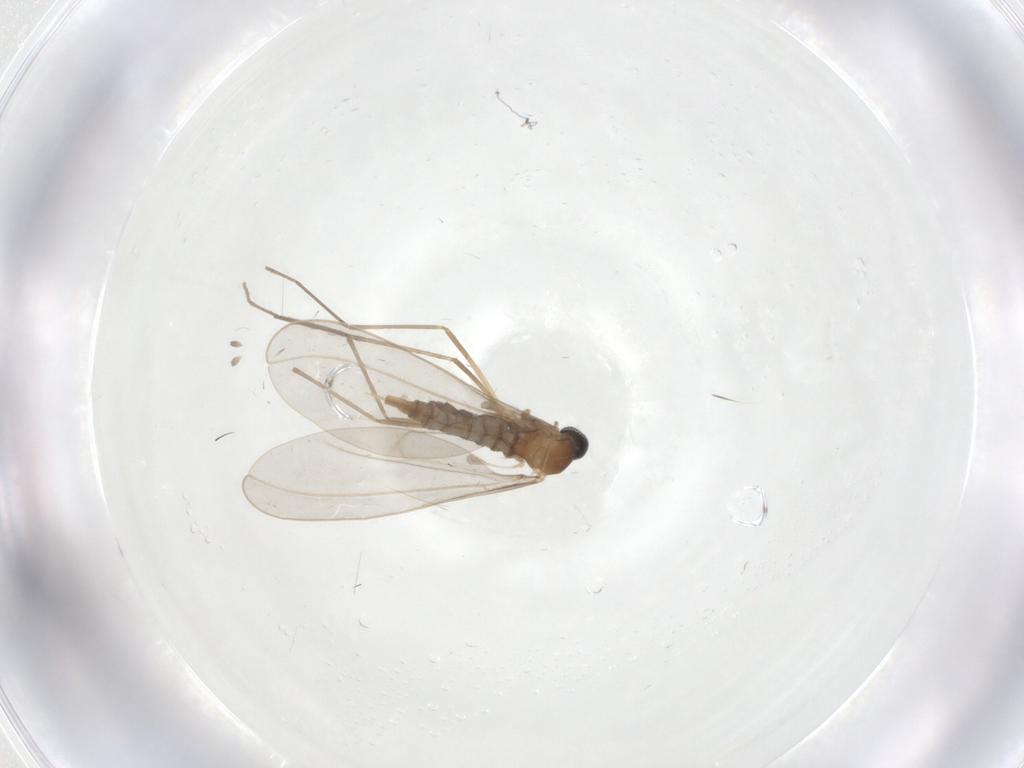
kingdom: Animalia
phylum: Arthropoda
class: Insecta
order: Diptera
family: Cecidomyiidae
